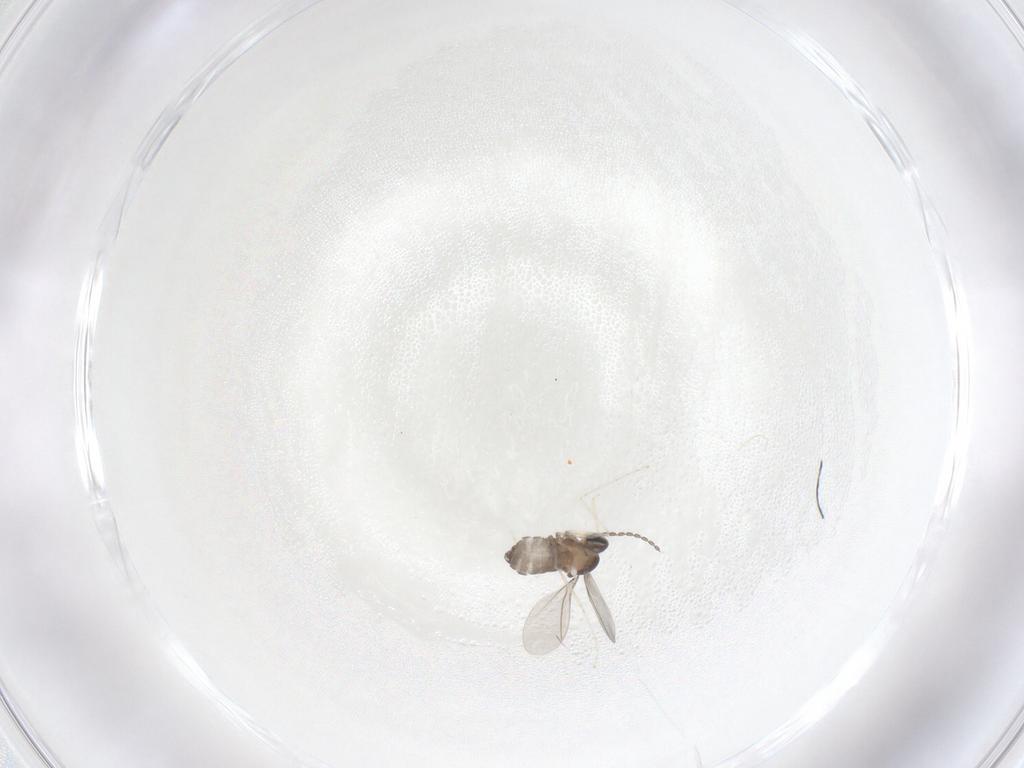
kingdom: Animalia
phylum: Arthropoda
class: Insecta
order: Diptera
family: Cecidomyiidae
